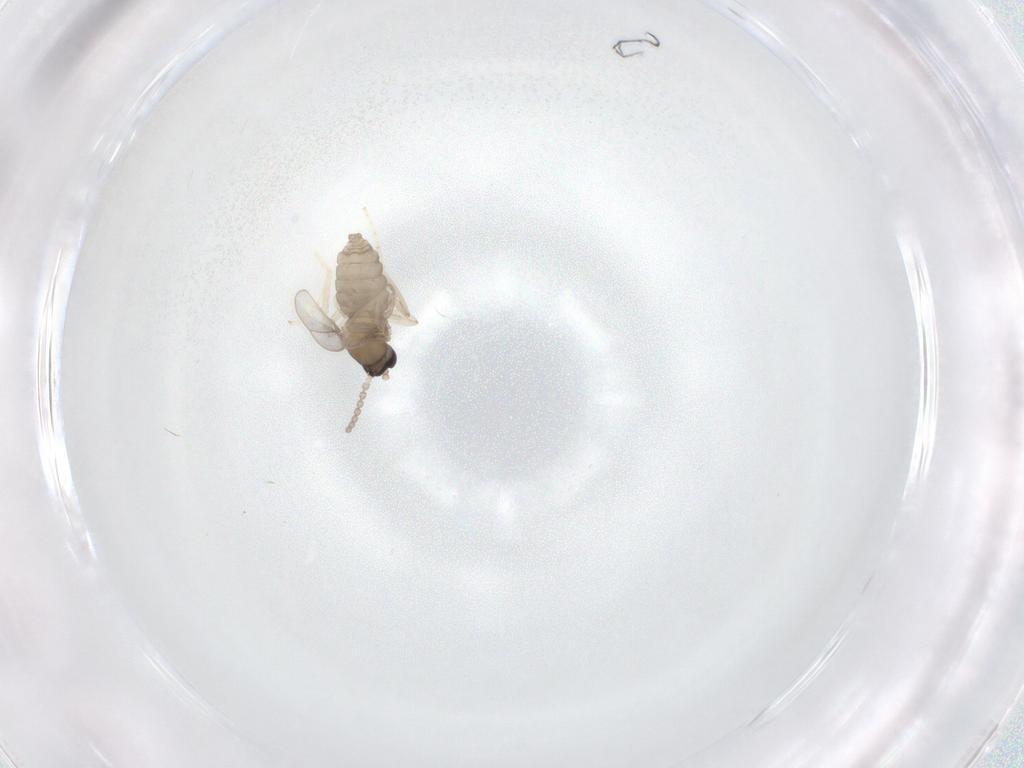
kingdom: Animalia
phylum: Arthropoda
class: Insecta
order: Diptera
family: Cecidomyiidae
